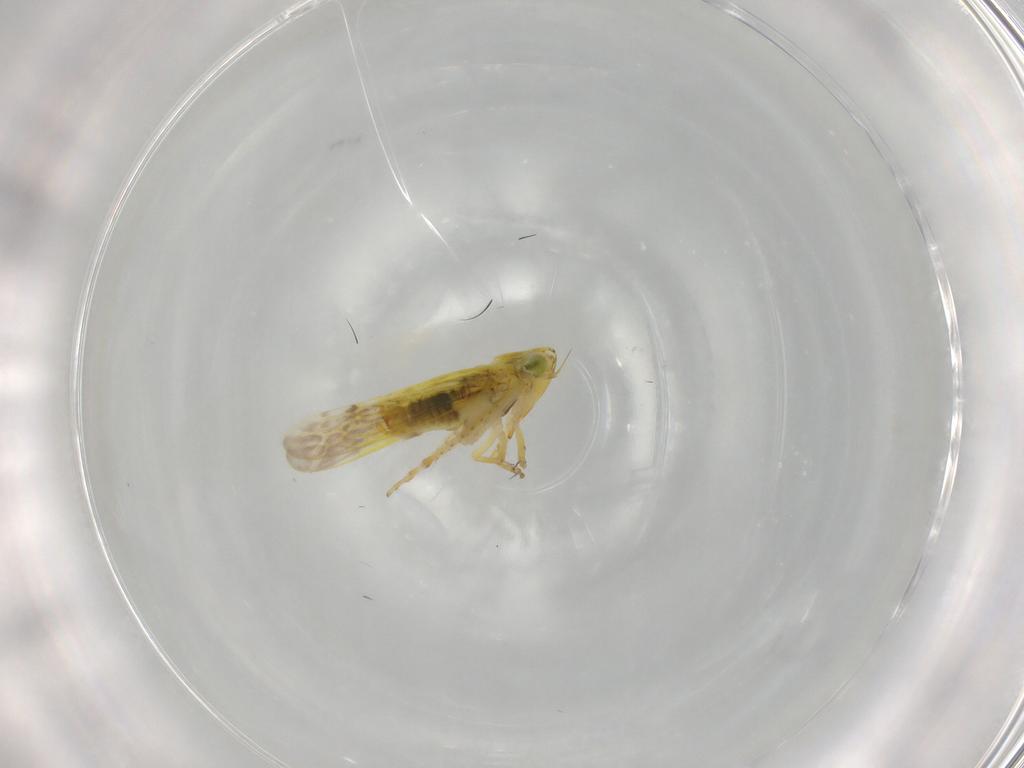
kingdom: Animalia
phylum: Arthropoda
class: Insecta
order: Hemiptera
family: Cicadellidae
